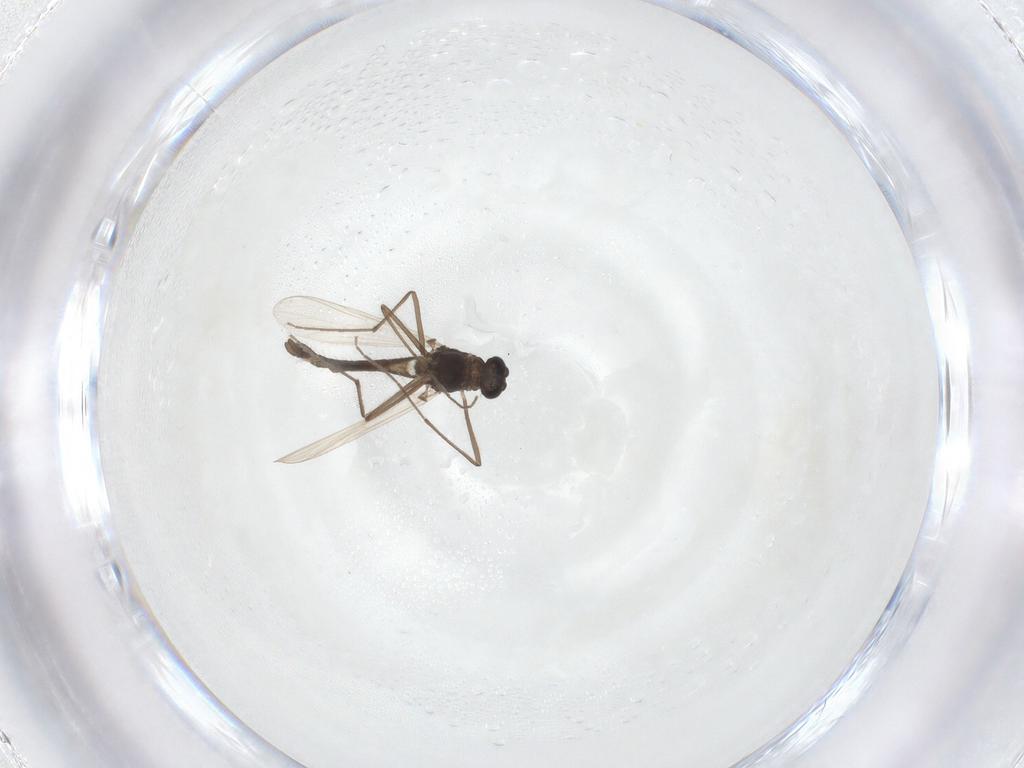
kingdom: Animalia
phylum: Arthropoda
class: Insecta
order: Diptera
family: Chironomidae
